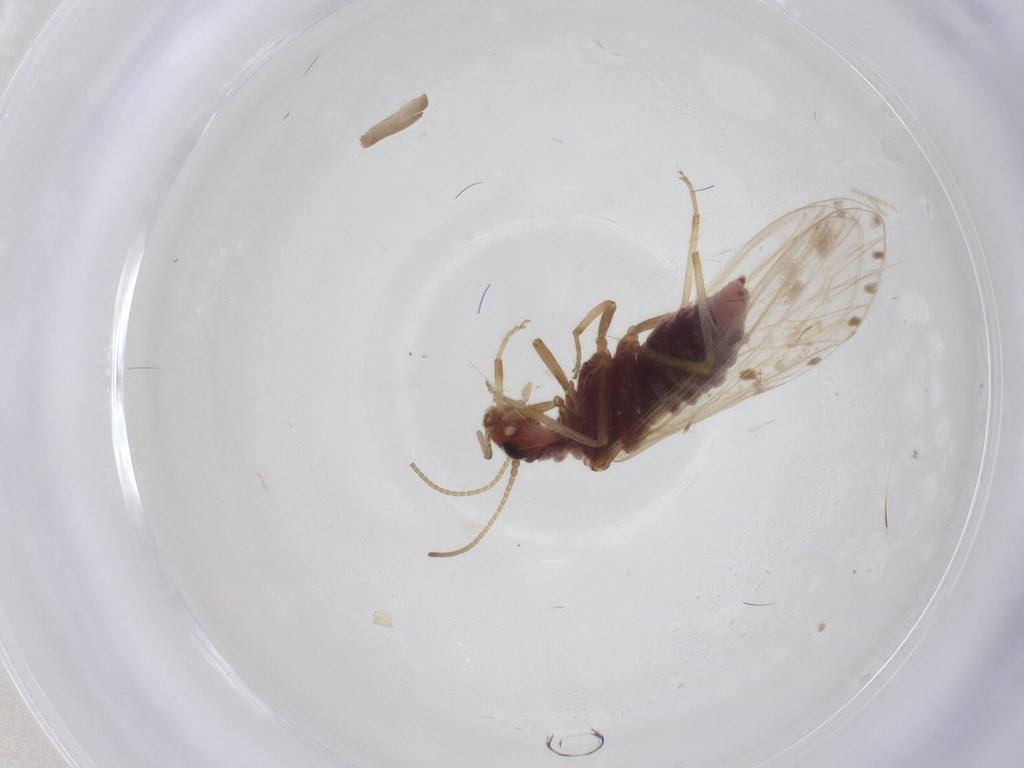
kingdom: Animalia
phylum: Arthropoda
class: Insecta
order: Neuroptera
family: Coniopterygidae
